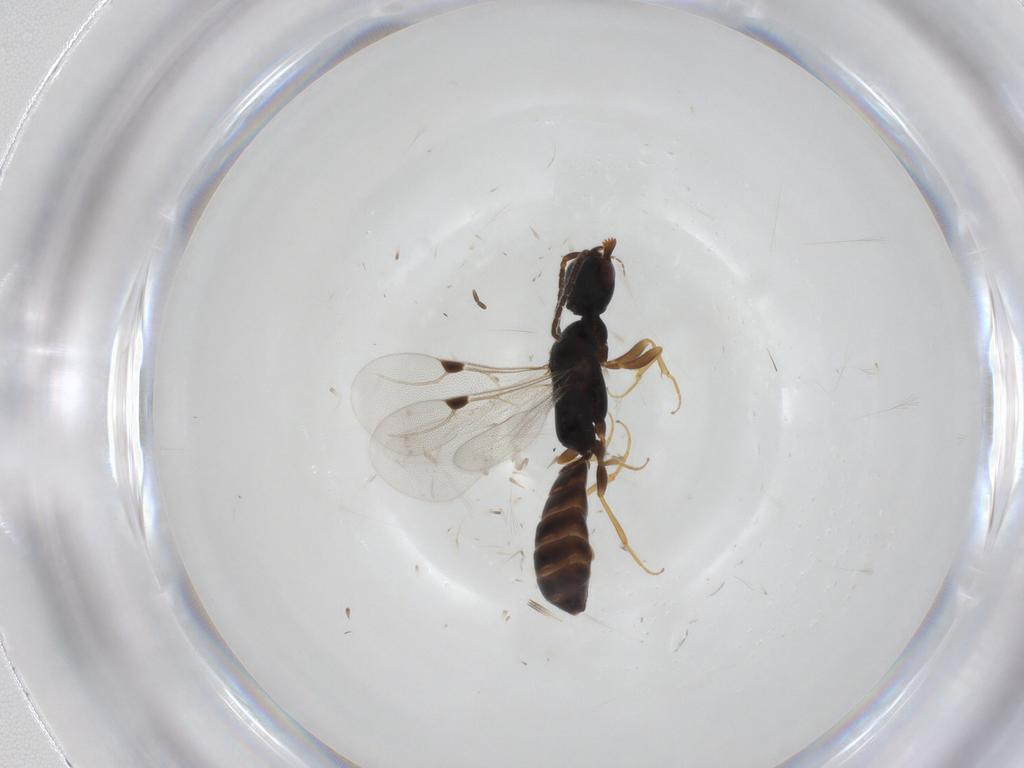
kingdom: Animalia
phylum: Arthropoda
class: Insecta
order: Hymenoptera
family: Bethylidae
